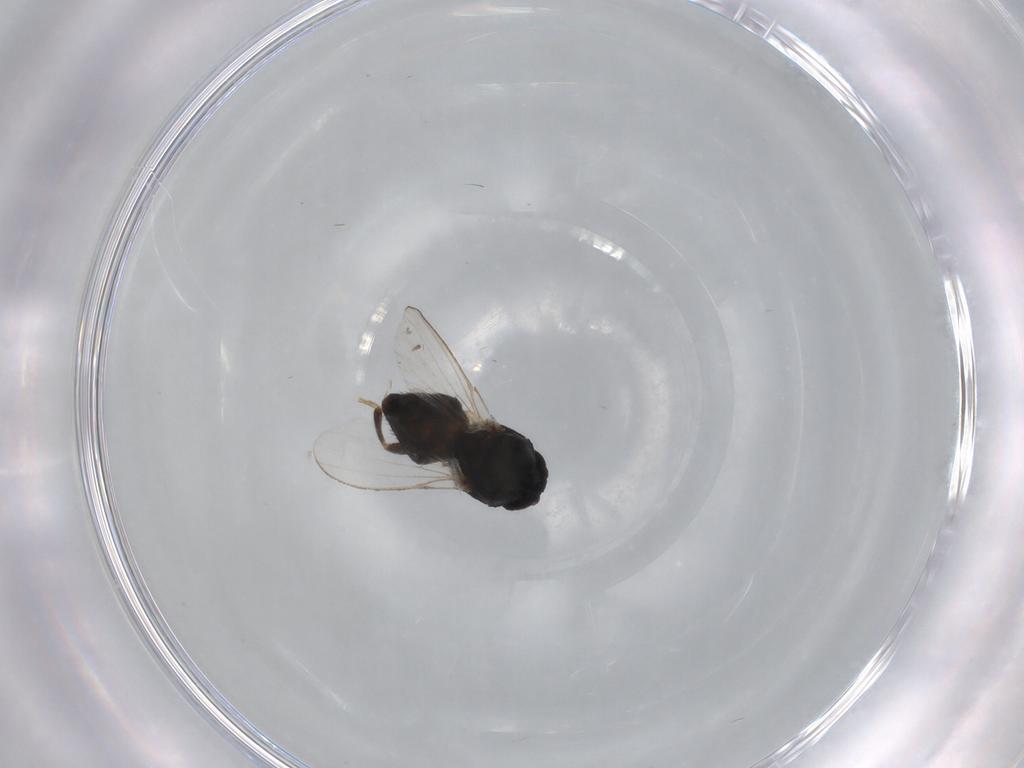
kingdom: Animalia
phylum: Arthropoda
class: Insecta
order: Diptera
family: Milichiidae
